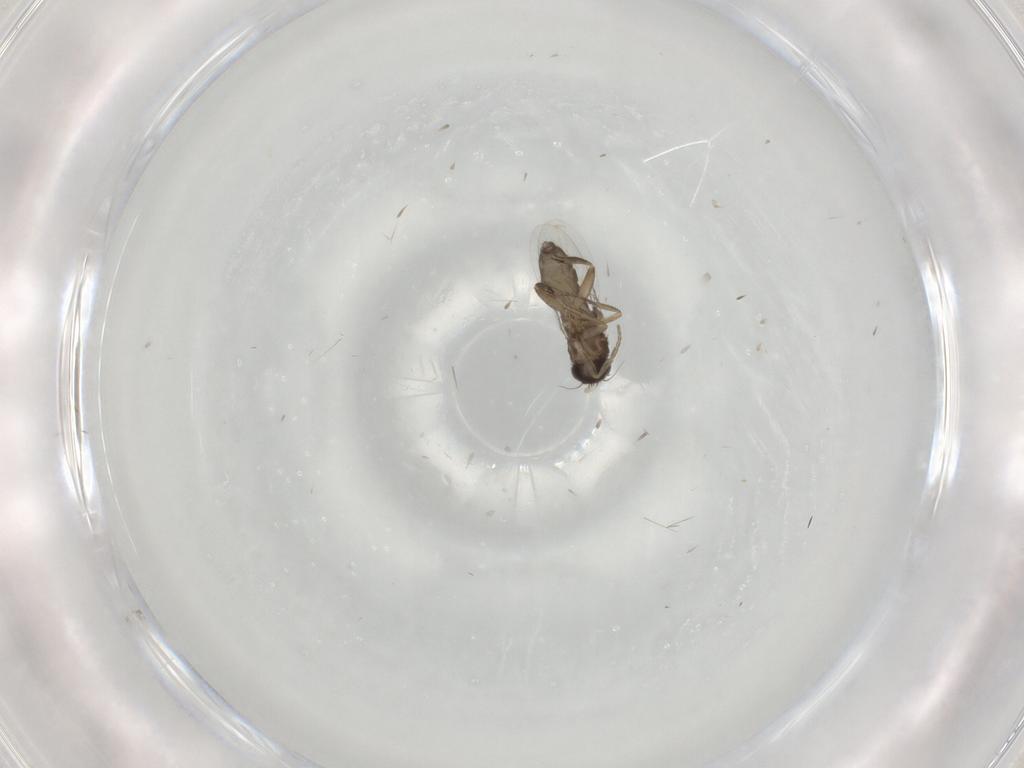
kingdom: Animalia
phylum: Arthropoda
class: Insecta
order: Diptera
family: Phoridae
